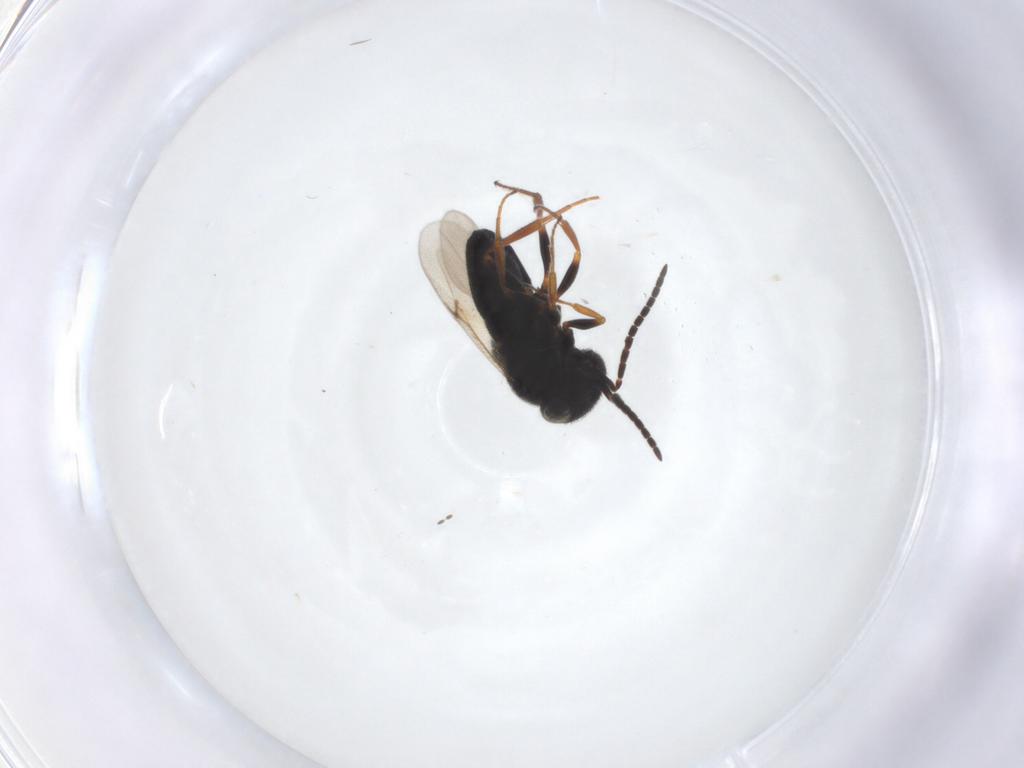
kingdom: Animalia
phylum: Arthropoda
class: Insecta
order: Hymenoptera
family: Scelionidae
